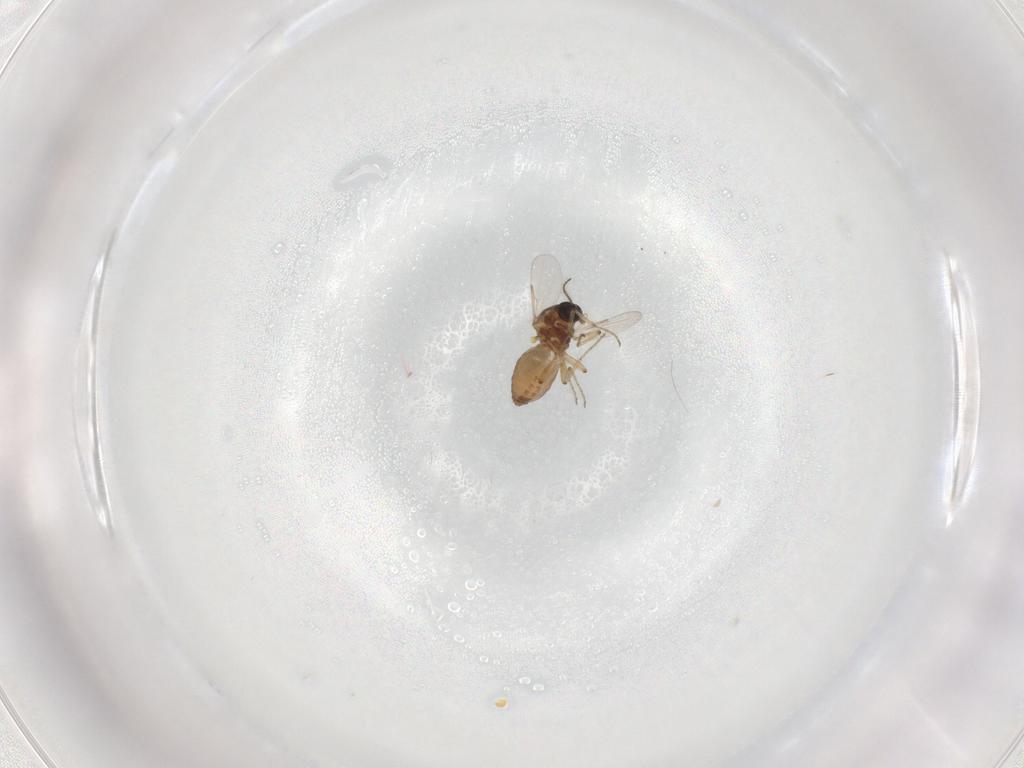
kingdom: Animalia
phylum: Arthropoda
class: Insecta
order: Diptera
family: Ceratopogonidae
